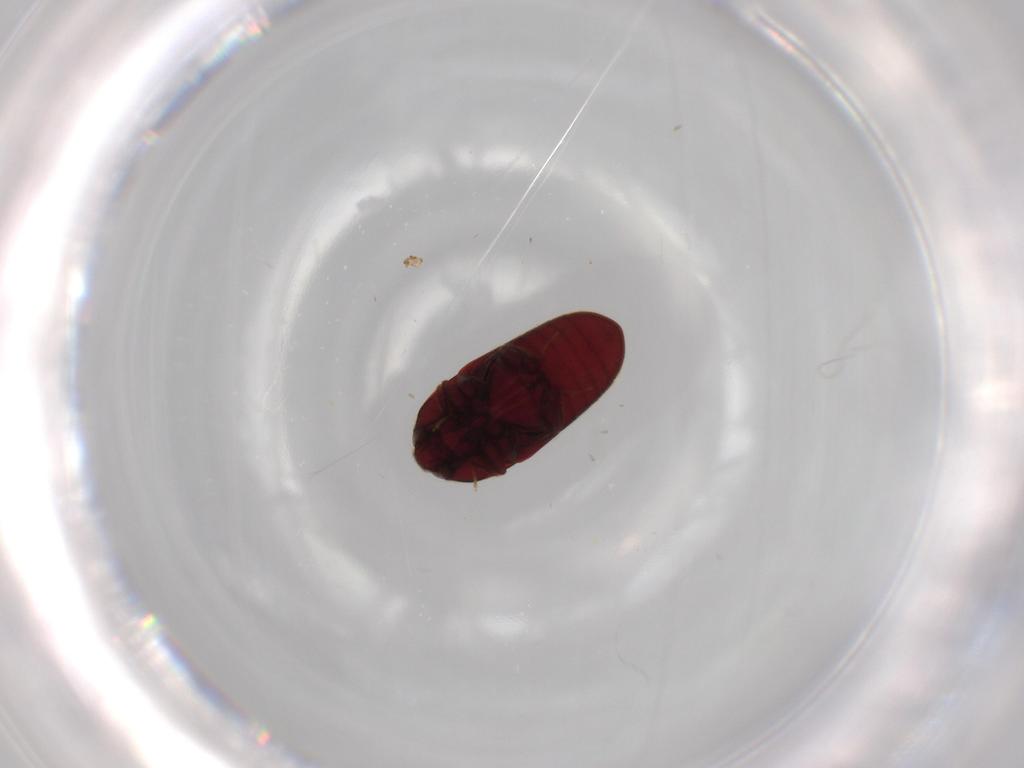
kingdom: Animalia
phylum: Arthropoda
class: Insecta
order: Coleoptera
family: Throscidae
